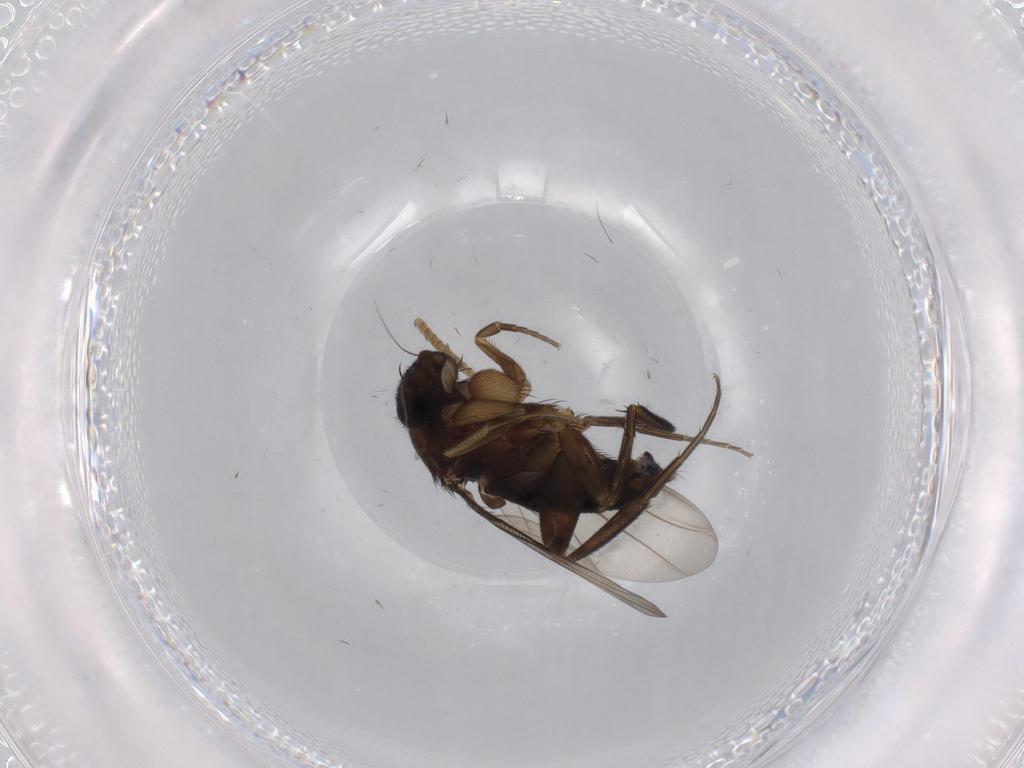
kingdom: Animalia
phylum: Arthropoda
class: Insecta
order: Diptera
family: Phoridae
